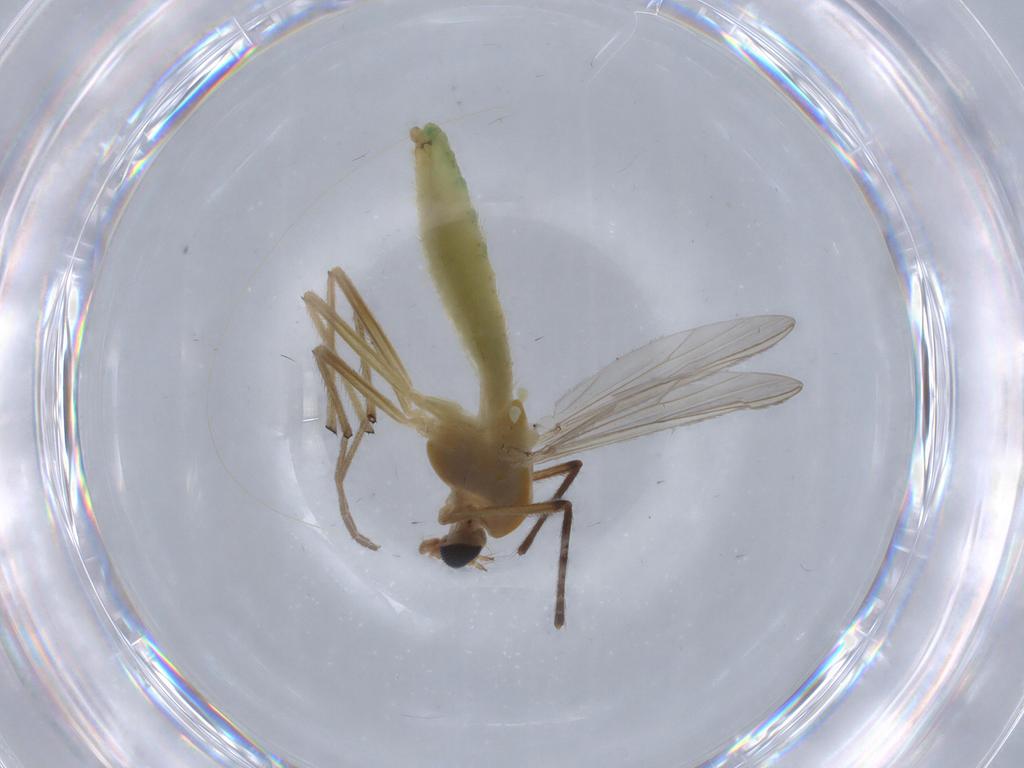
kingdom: Animalia
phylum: Arthropoda
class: Insecta
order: Diptera
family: Chironomidae
